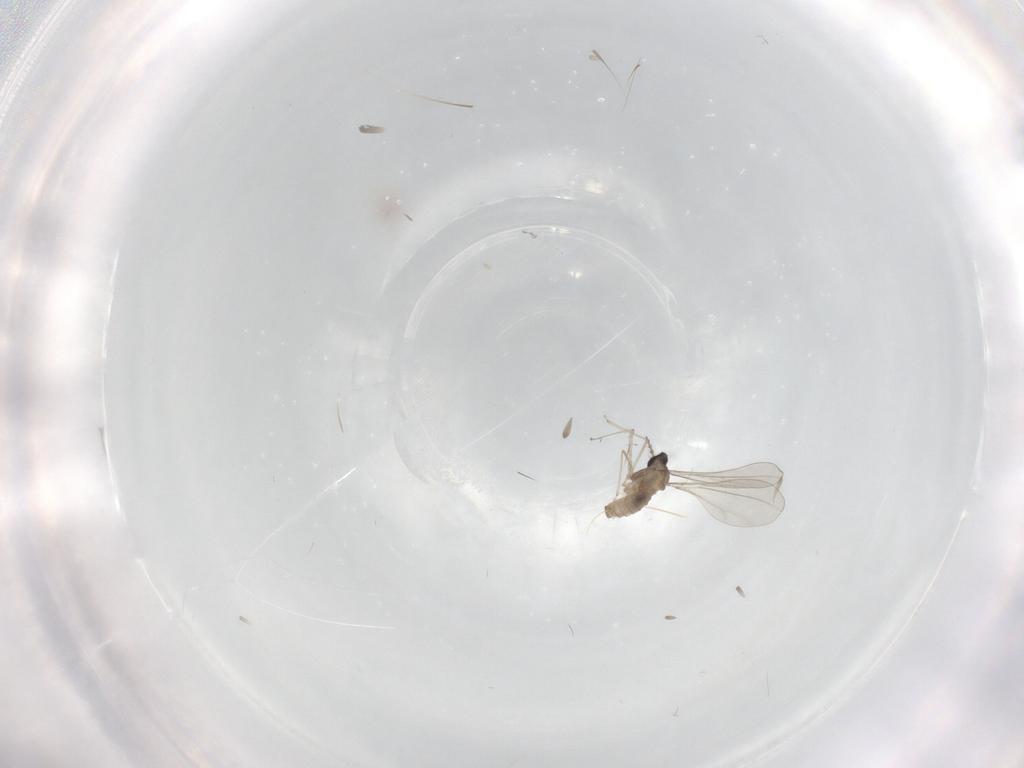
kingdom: Animalia
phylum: Arthropoda
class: Insecta
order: Diptera
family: Cecidomyiidae
